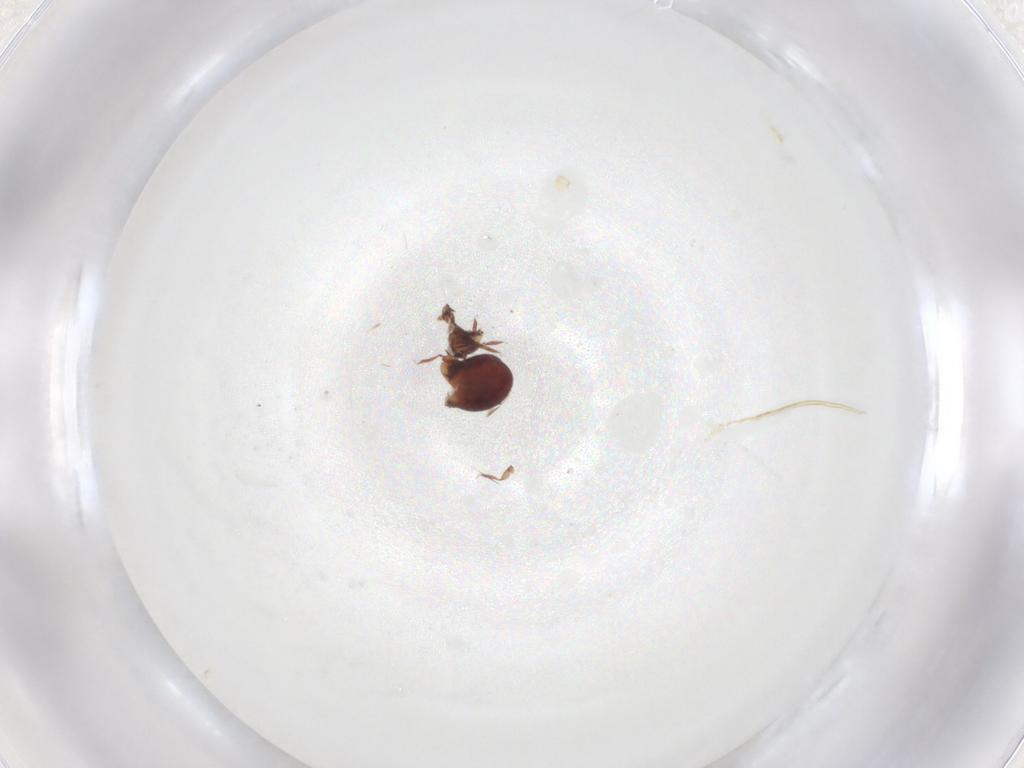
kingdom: Animalia
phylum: Arthropoda
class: Arachnida
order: Sarcoptiformes
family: Humerobatidae
